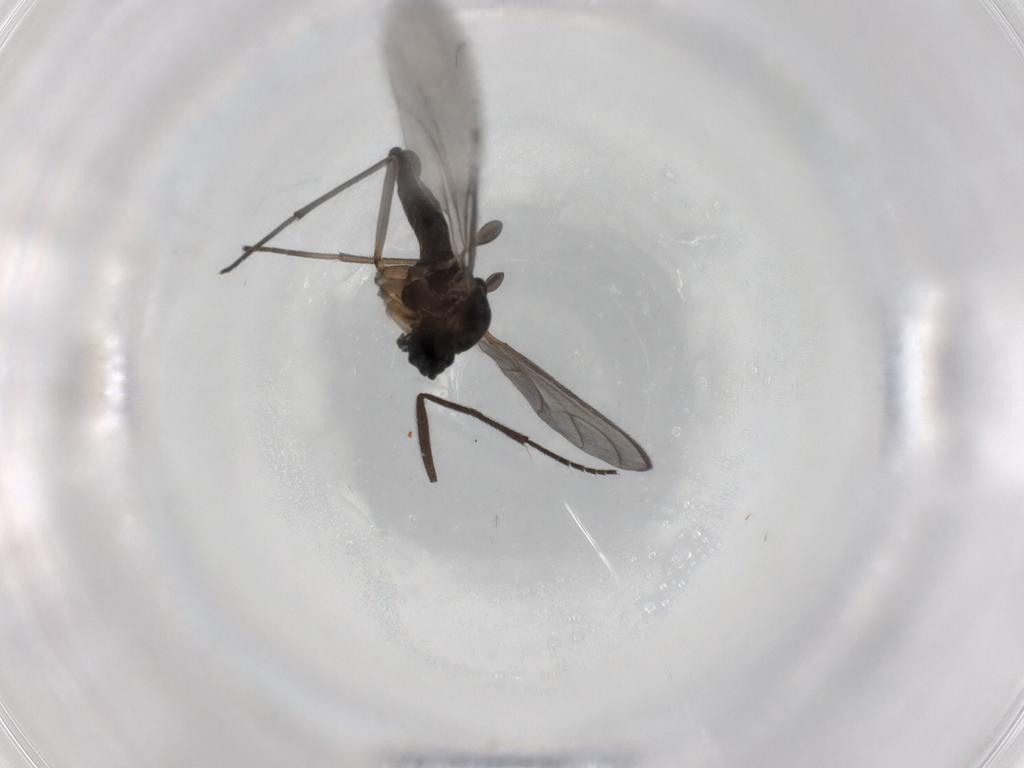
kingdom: Animalia
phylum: Arthropoda
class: Insecta
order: Diptera
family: Sciaridae
